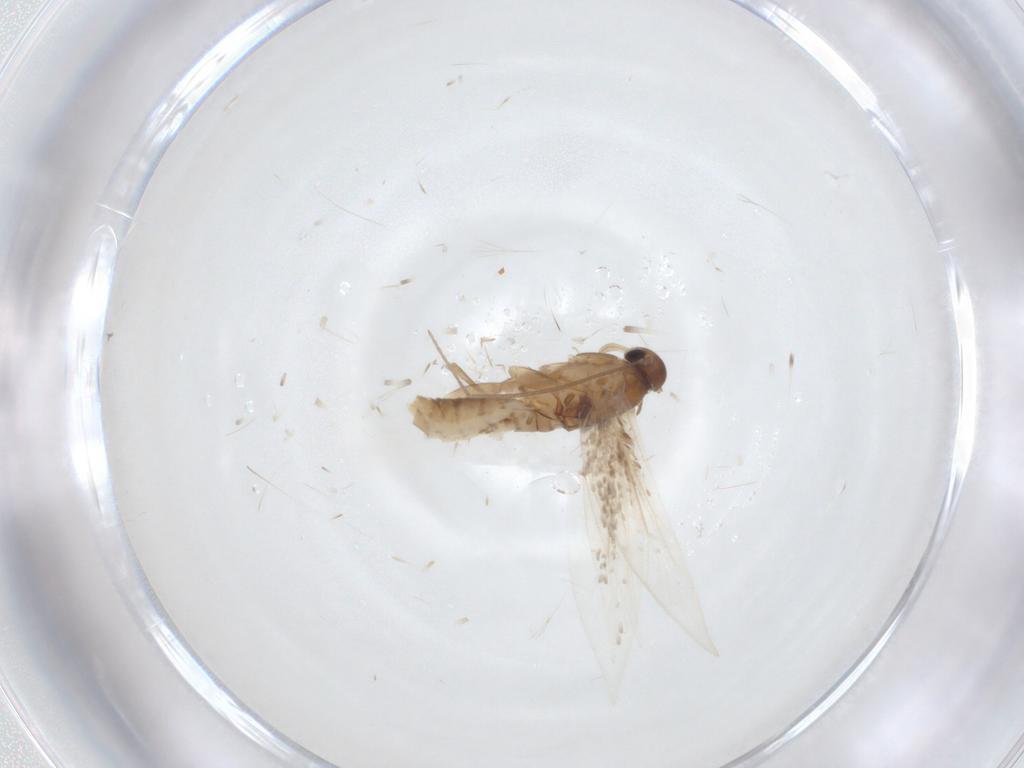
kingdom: Animalia
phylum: Arthropoda
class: Insecta
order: Lepidoptera
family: Elachistidae
